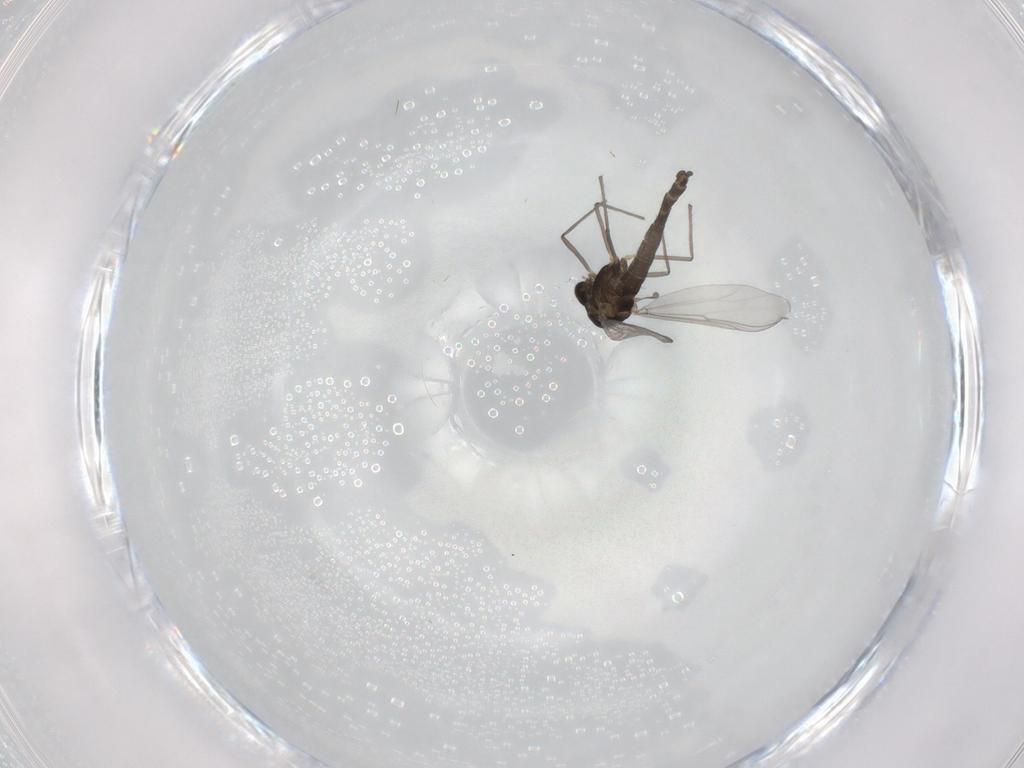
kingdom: Animalia
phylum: Arthropoda
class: Insecta
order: Diptera
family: Chironomidae
